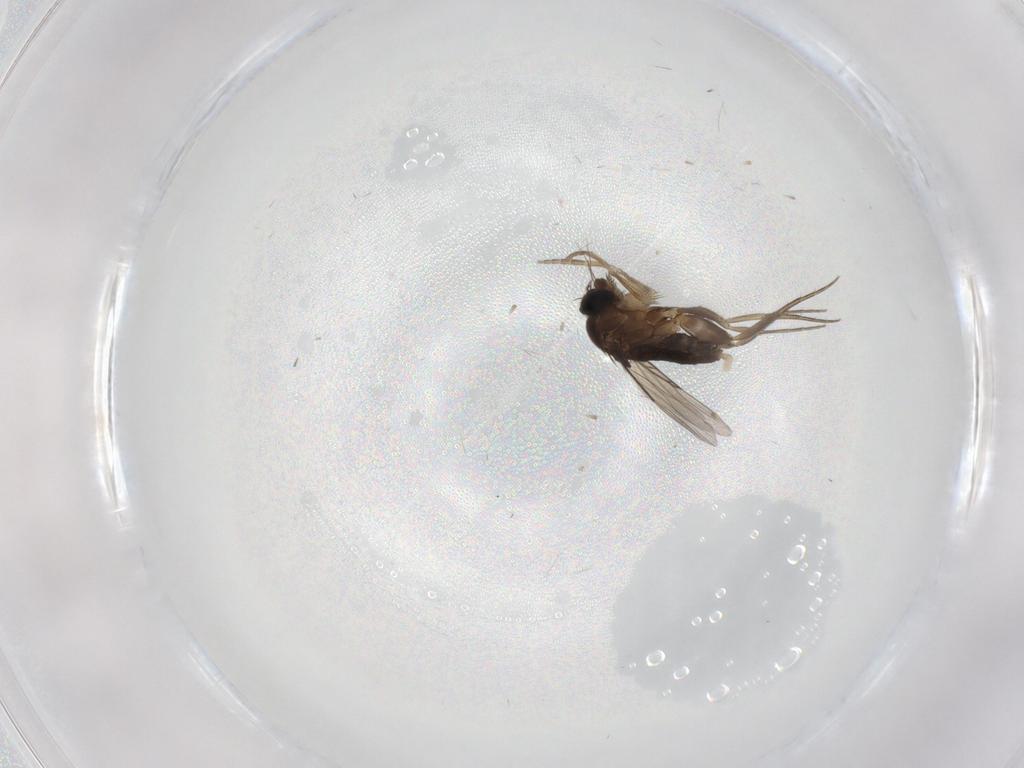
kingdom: Animalia
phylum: Arthropoda
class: Insecta
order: Diptera
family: Phoridae
